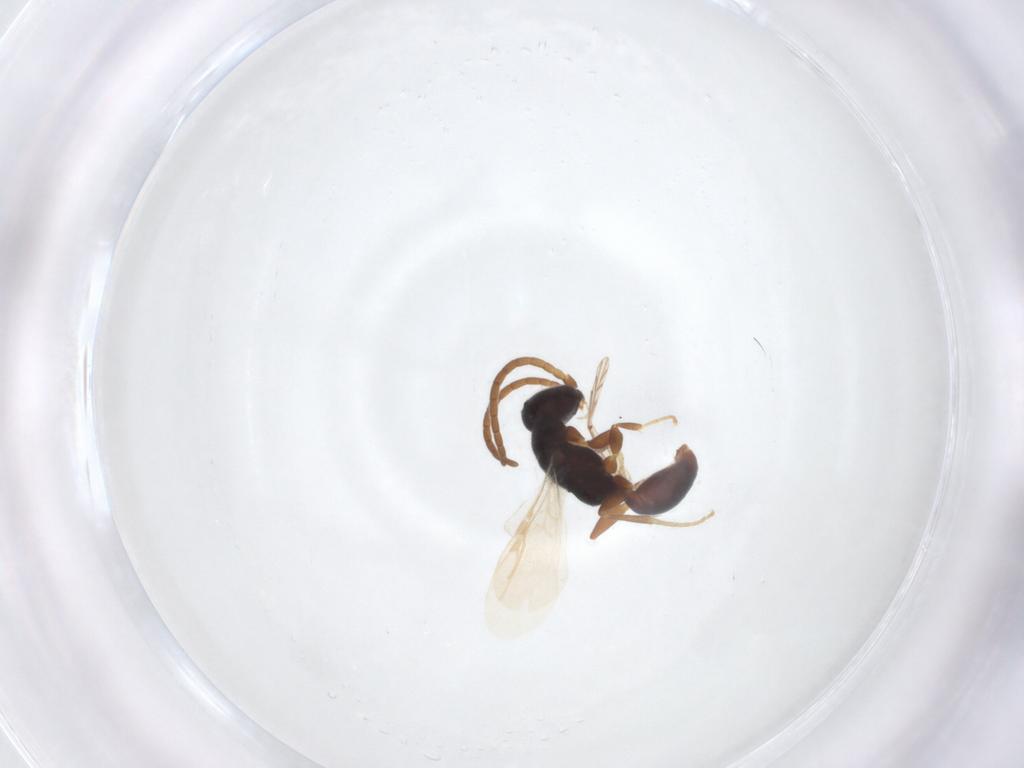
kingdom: Animalia
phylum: Arthropoda
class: Insecta
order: Hymenoptera
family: Bethylidae
